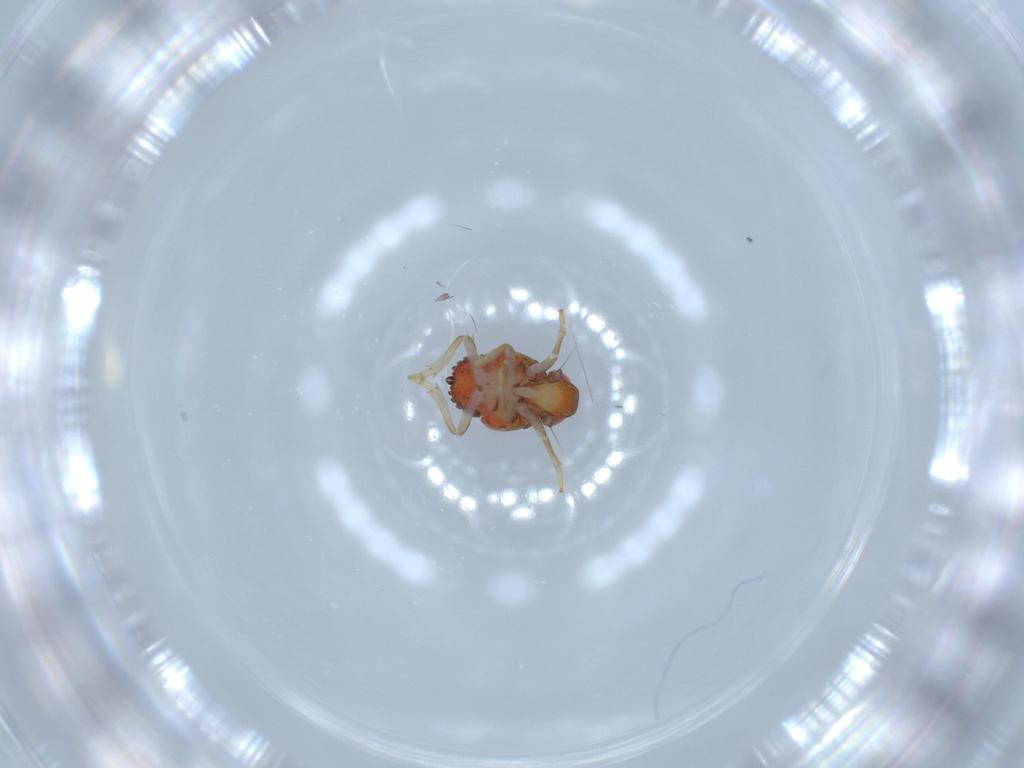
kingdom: Animalia
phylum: Arthropoda
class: Insecta
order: Hemiptera
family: Issidae
